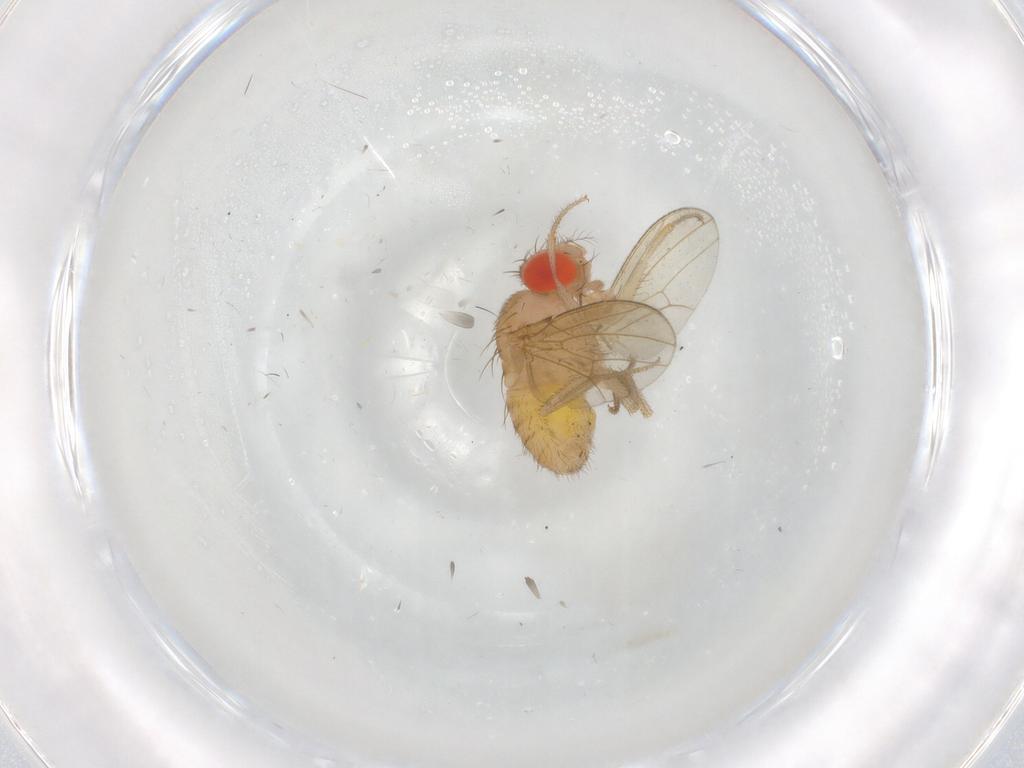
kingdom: Animalia
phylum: Arthropoda
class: Insecta
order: Diptera
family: Drosophilidae
